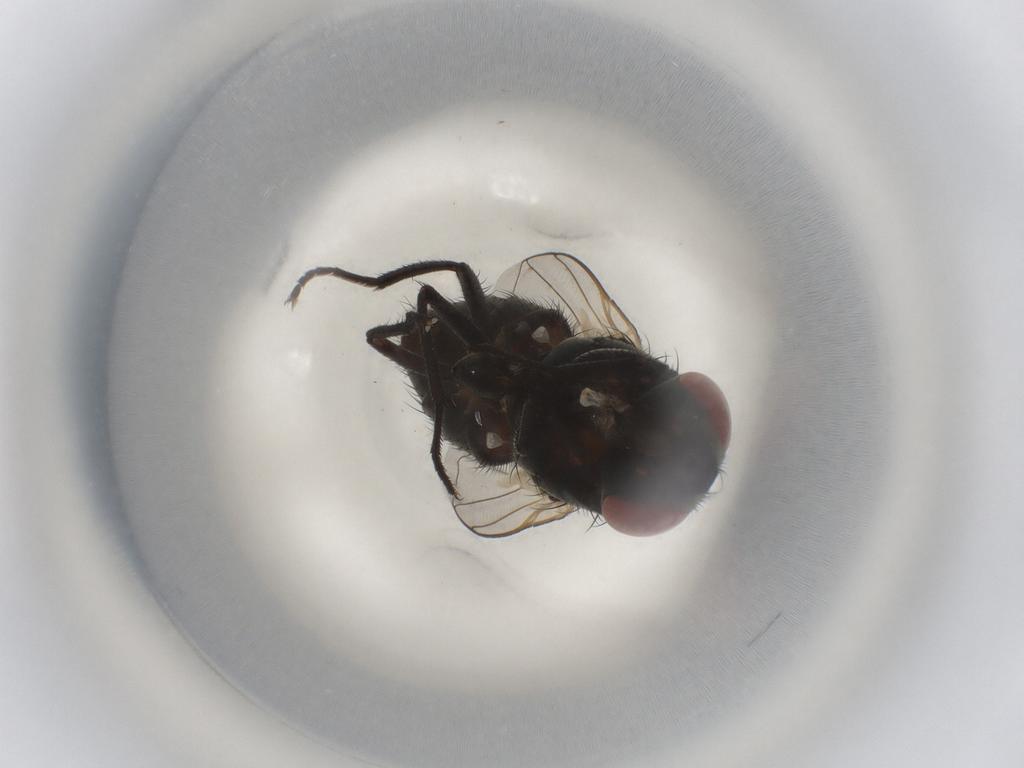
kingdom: Animalia
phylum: Arthropoda
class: Insecta
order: Diptera
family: Muscidae
